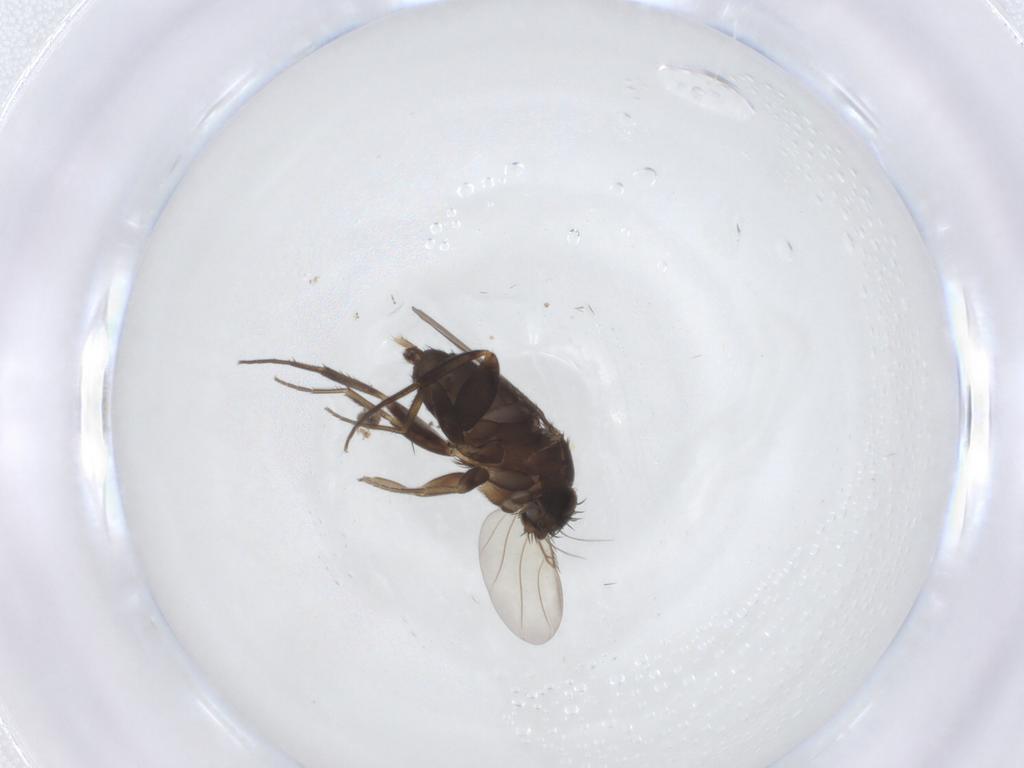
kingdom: Animalia
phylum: Arthropoda
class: Insecta
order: Diptera
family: Phoridae
